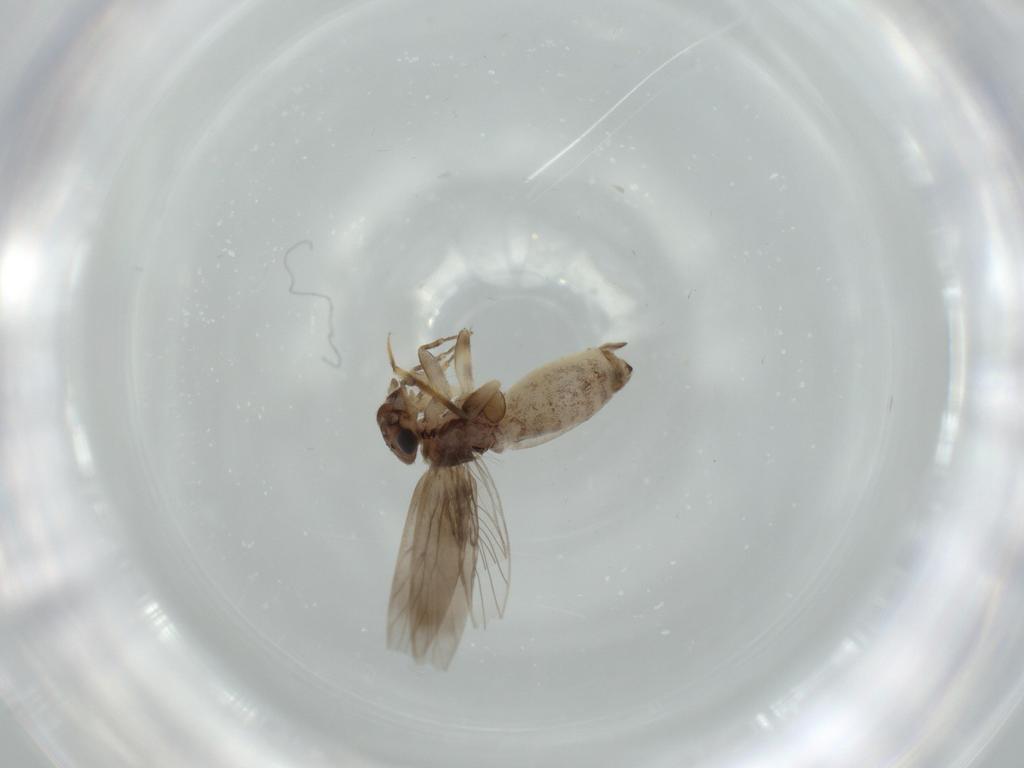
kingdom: Animalia
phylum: Arthropoda
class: Insecta
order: Psocodea
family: Lepidopsocidae
